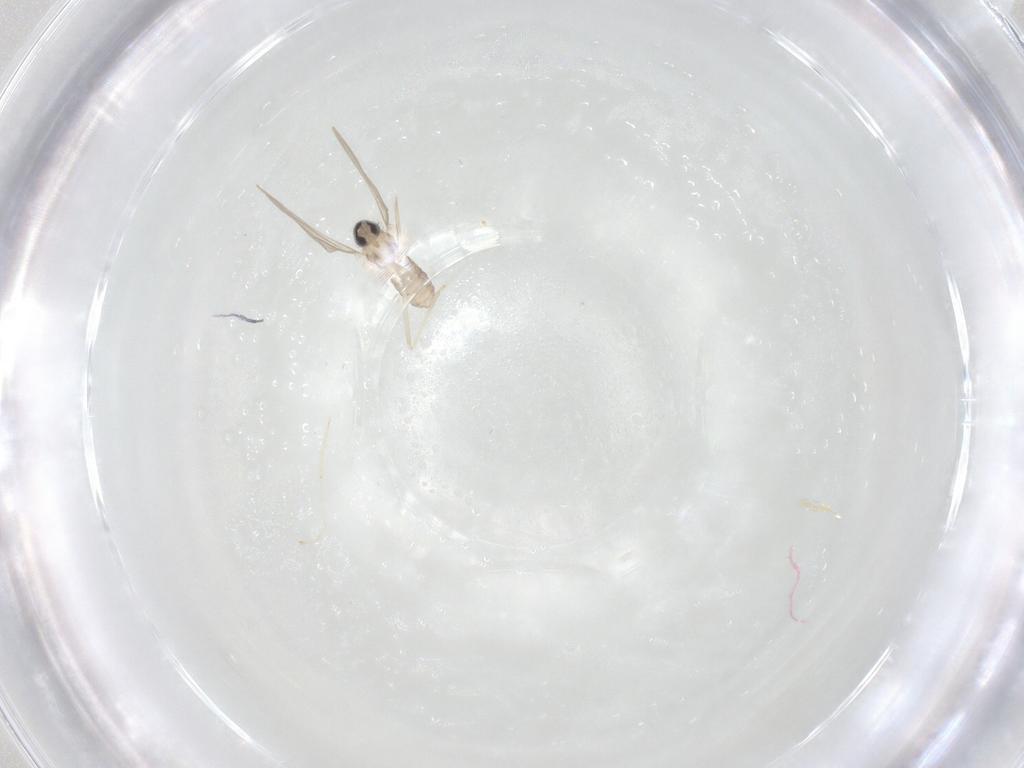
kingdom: Animalia
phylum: Arthropoda
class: Insecta
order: Diptera
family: Cecidomyiidae
